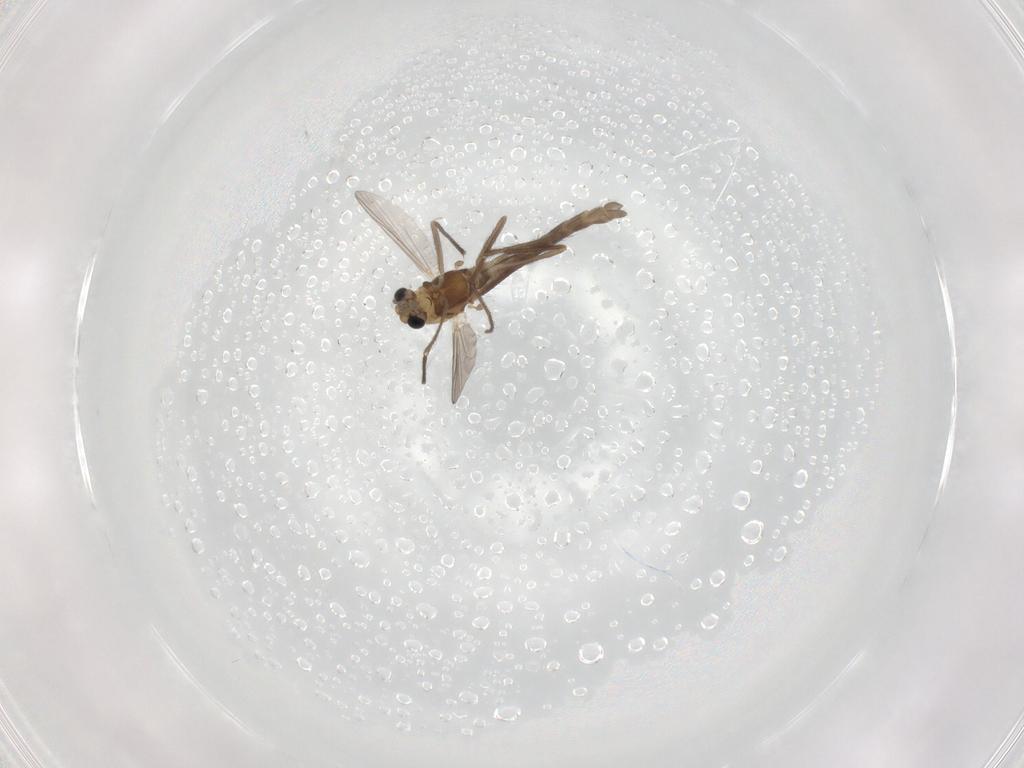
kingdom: Animalia
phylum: Arthropoda
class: Insecta
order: Diptera
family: Chironomidae
